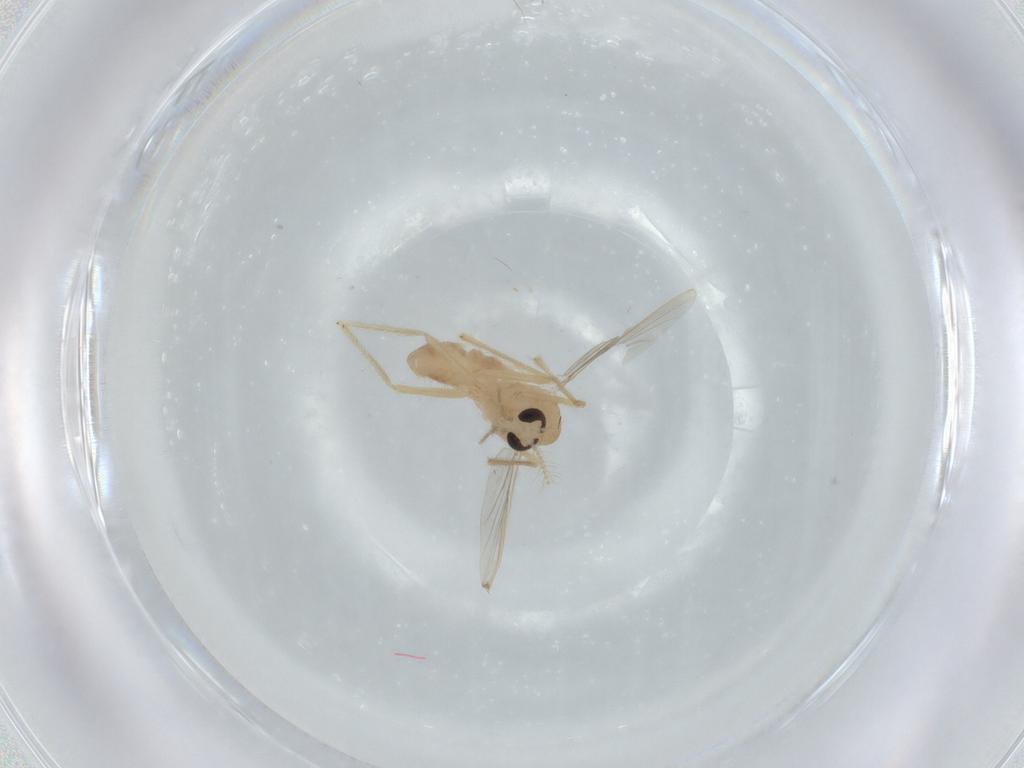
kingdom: Animalia
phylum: Arthropoda
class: Insecta
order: Diptera
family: Chironomidae
